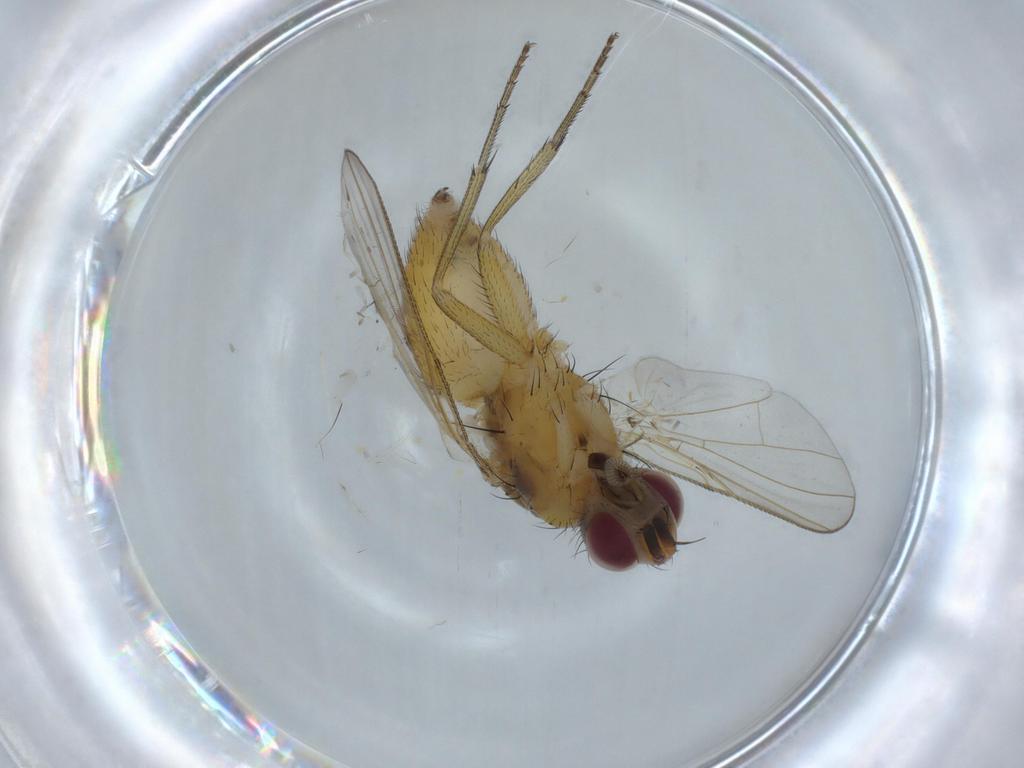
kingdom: Animalia
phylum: Arthropoda
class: Insecta
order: Diptera
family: Muscidae
